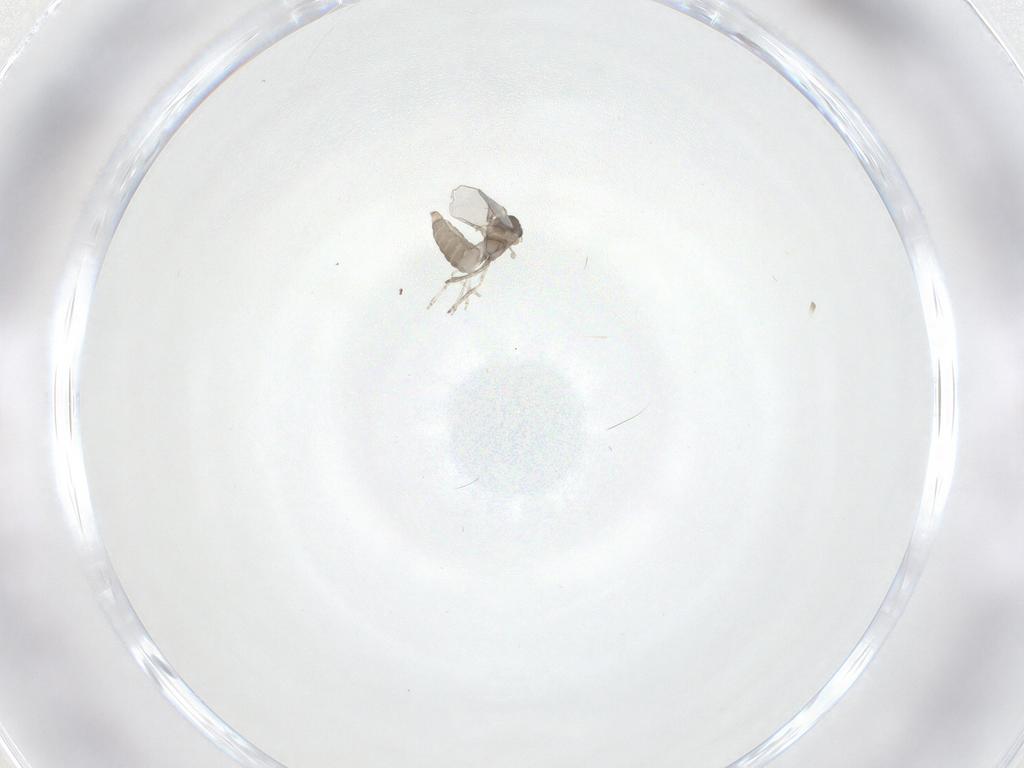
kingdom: Animalia
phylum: Arthropoda
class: Insecta
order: Diptera
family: Cecidomyiidae
